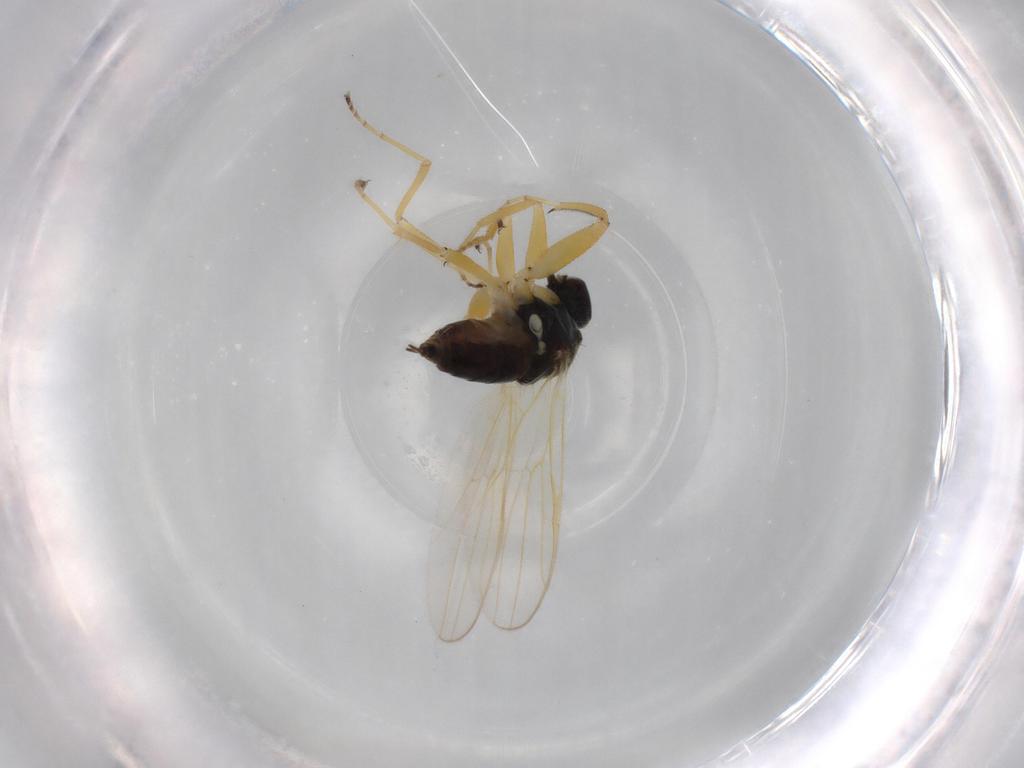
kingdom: Animalia
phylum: Arthropoda
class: Insecta
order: Diptera
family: Hybotidae
